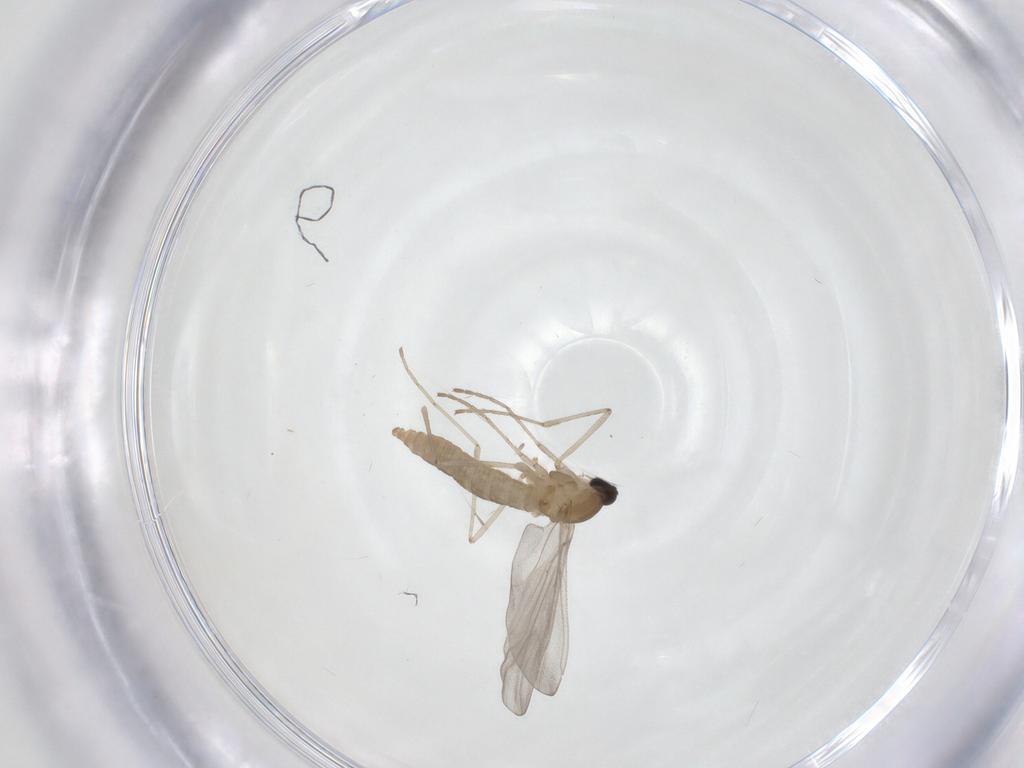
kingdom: Animalia
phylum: Arthropoda
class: Insecta
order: Diptera
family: Cecidomyiidae
